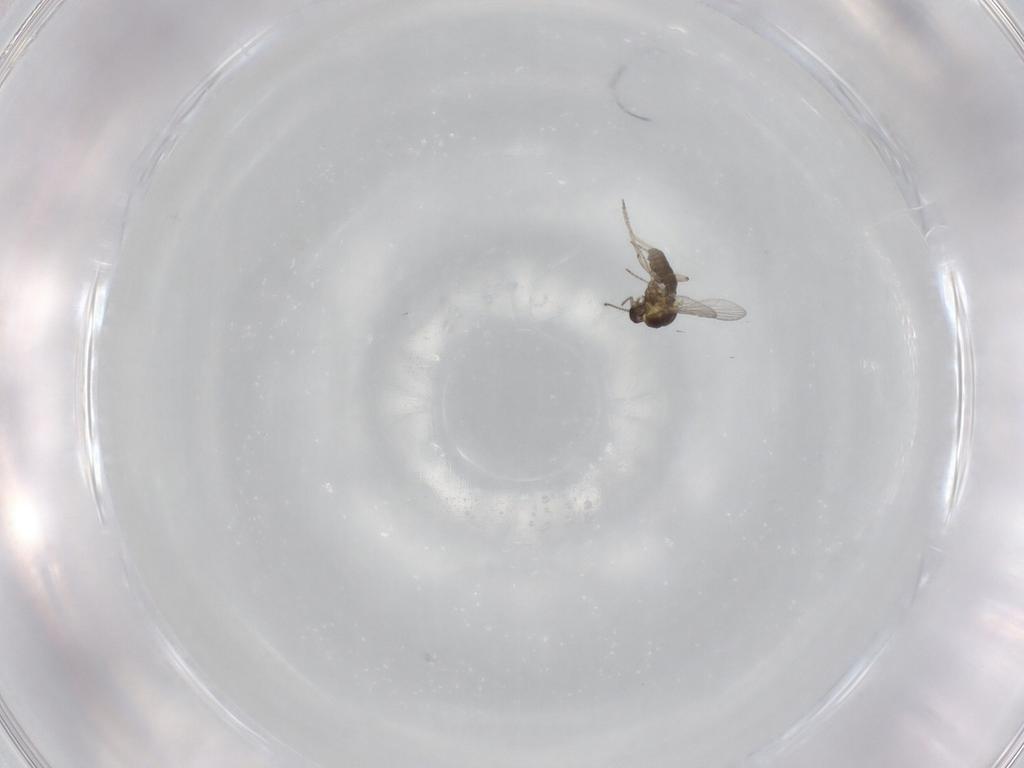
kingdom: Animalia
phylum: Arthropoda
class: Insecta
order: Diptera
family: Ceratopogonidae
